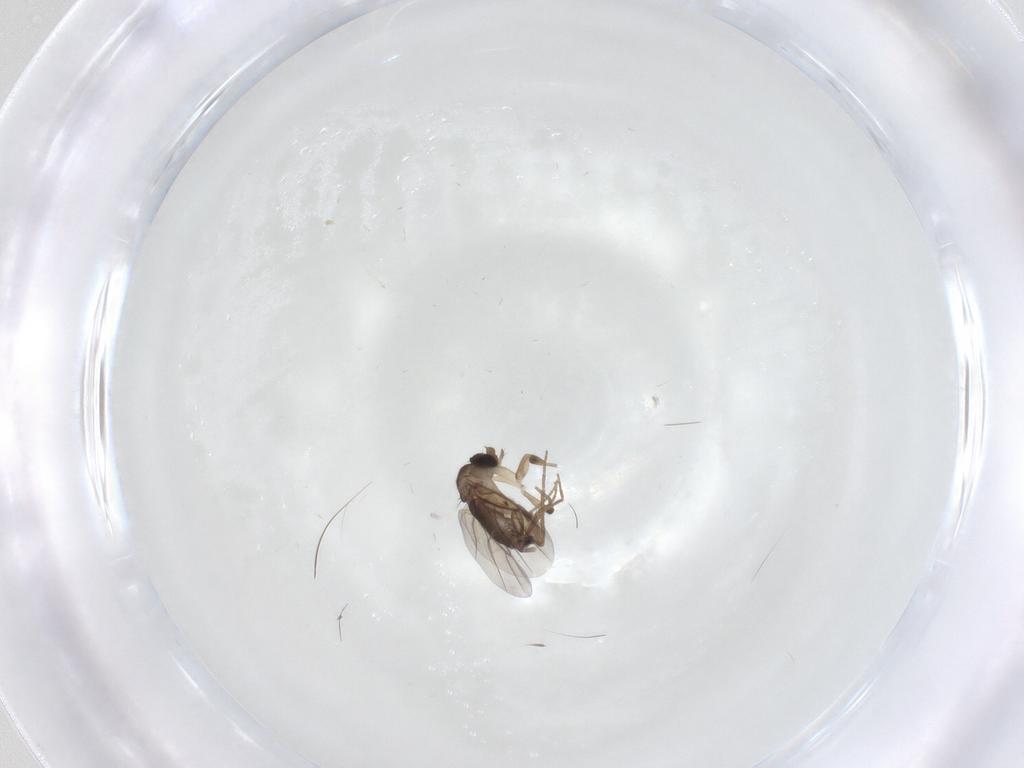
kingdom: Animalia
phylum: Arthropoda
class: Insecta
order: Diptera
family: Phoridae
